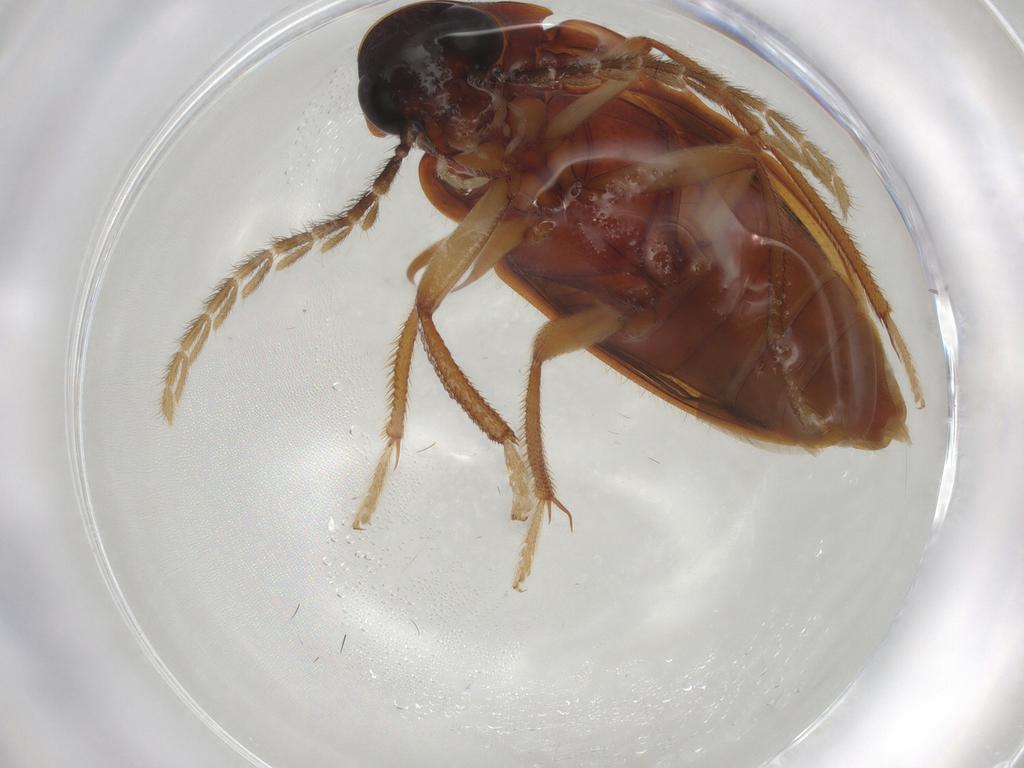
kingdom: Animalia
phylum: Arthropoda
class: Insecta
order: Coleoptera
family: Ptilodactylidae
